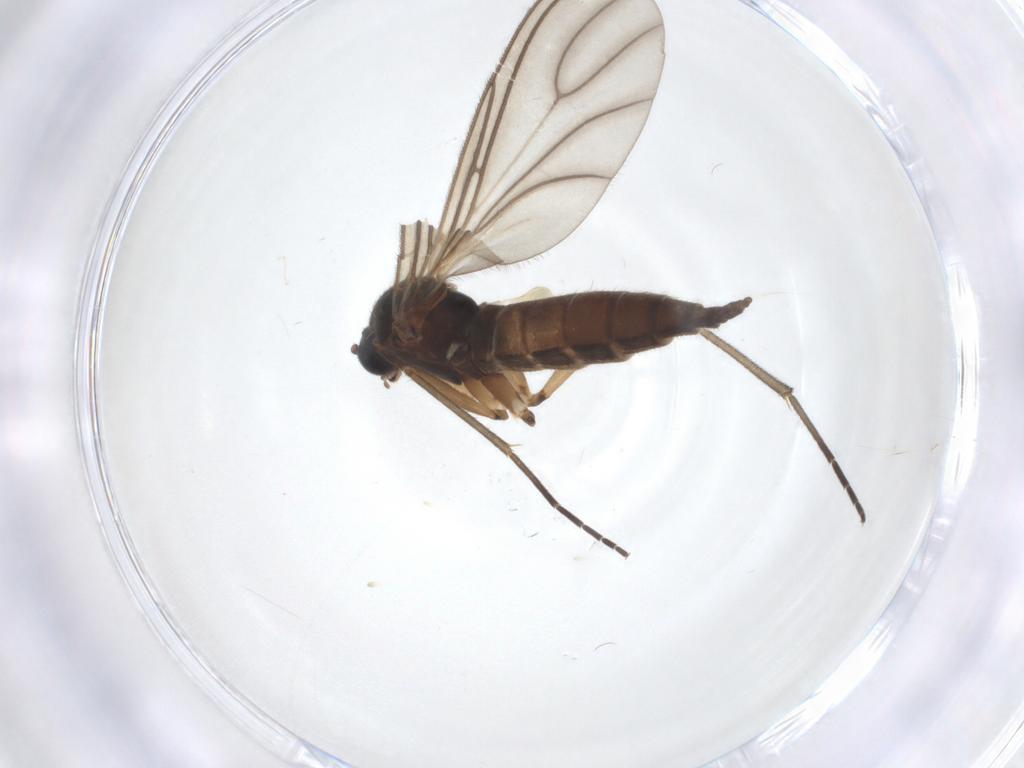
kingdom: Animalia
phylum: Arthropoda
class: Insecta
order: Diptera
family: Sciaridae
